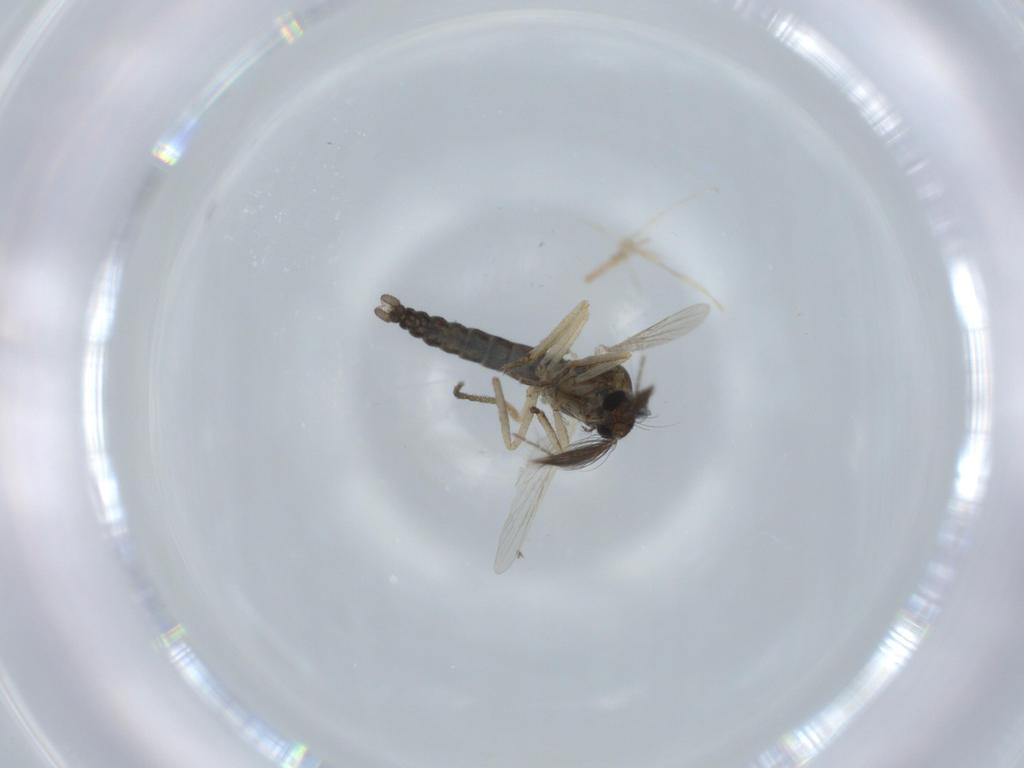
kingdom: Animalia
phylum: Arthropoda
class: Insecta
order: Diptera
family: Ceratopogonidae
